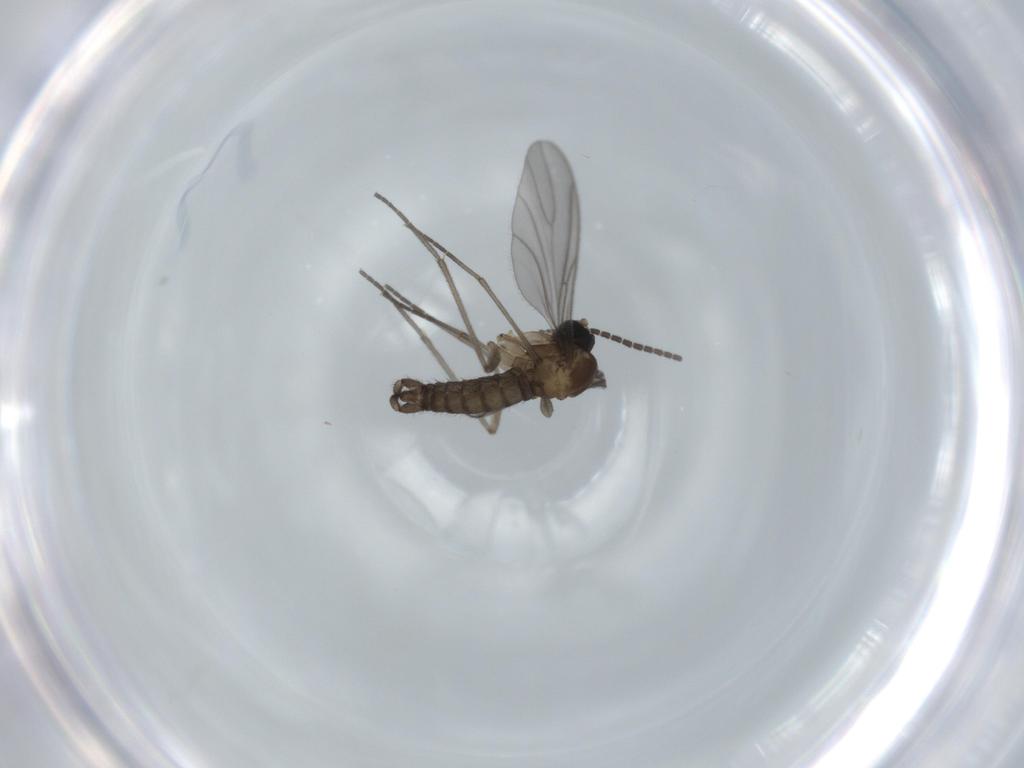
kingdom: Animalia
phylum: Arthropoda
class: Insecta
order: Diptera
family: Sciaridae
